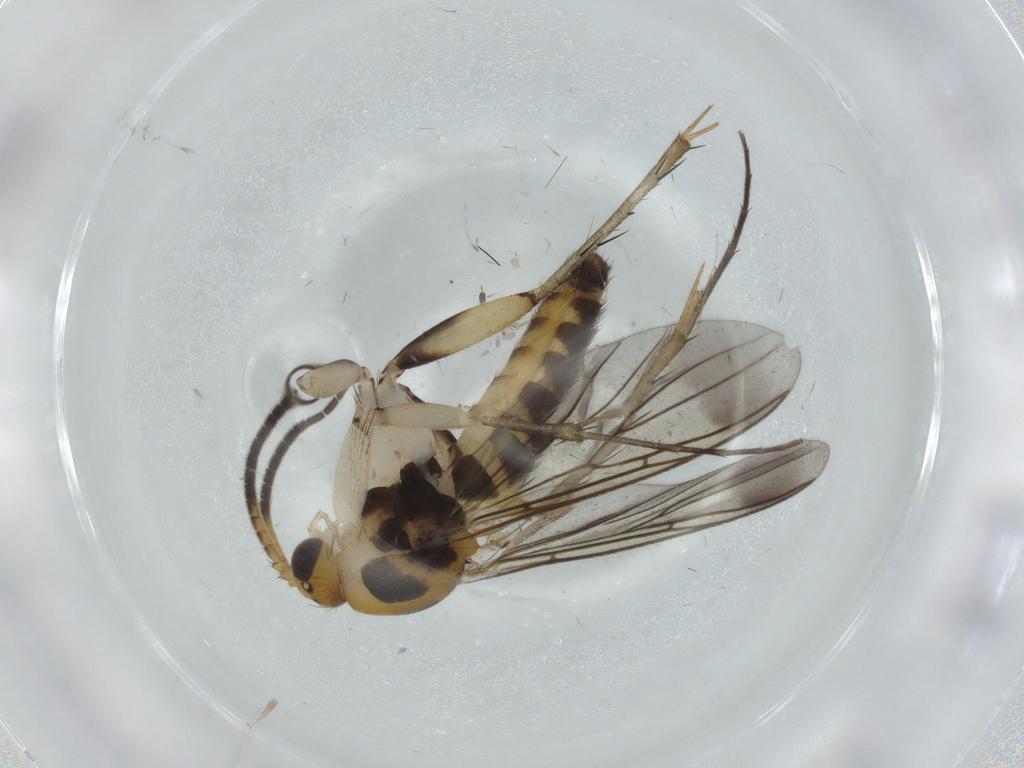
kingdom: Animalia
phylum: Arthropoda
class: Insecta
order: Diptera
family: Mycetophilidae
